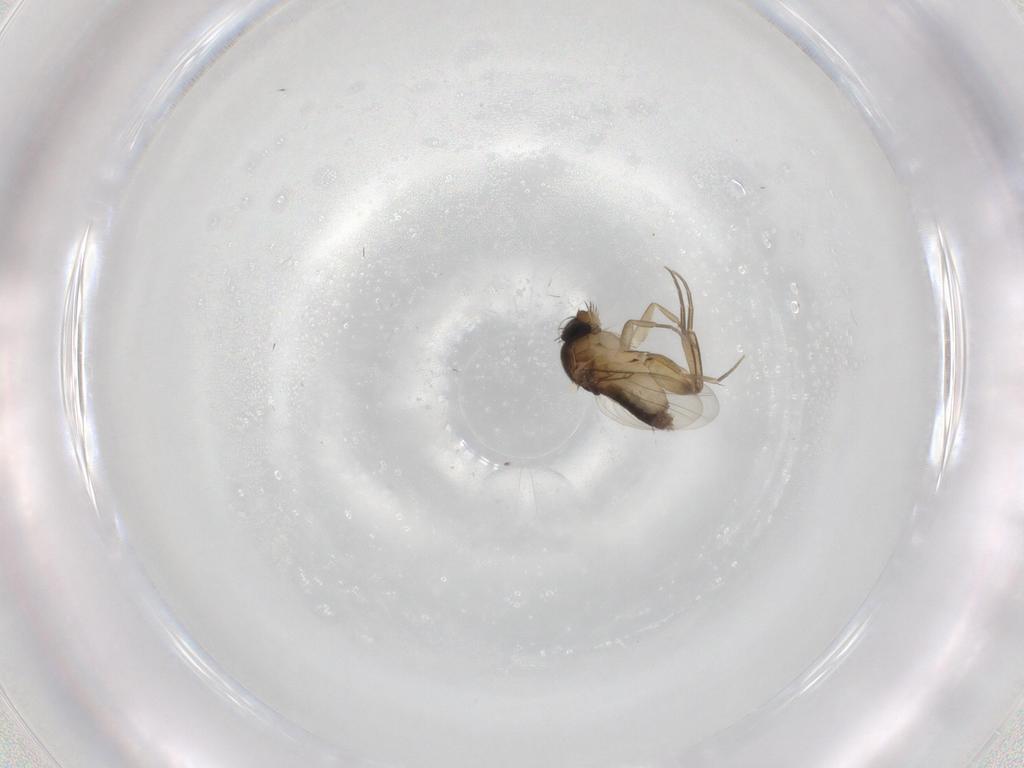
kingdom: Animalia
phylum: Arthropoda
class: Insecta
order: Diptera
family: Phoridae
